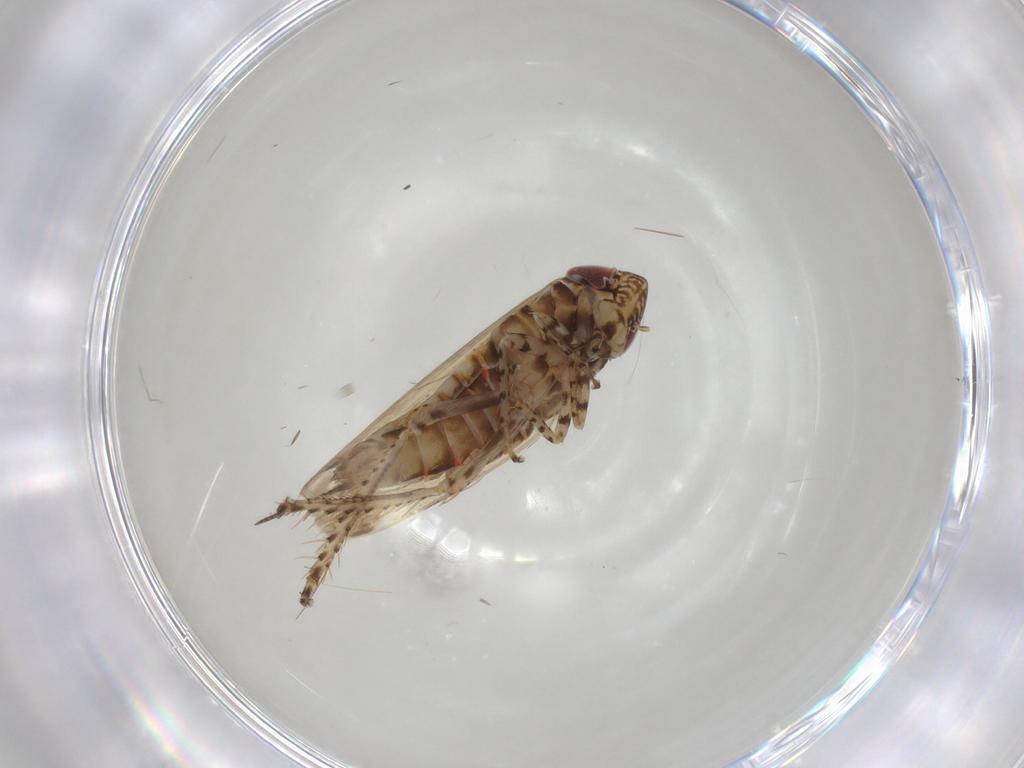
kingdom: Animalia
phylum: Arthropoda
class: Insecta
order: Hemiptera
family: Cicadellidae
